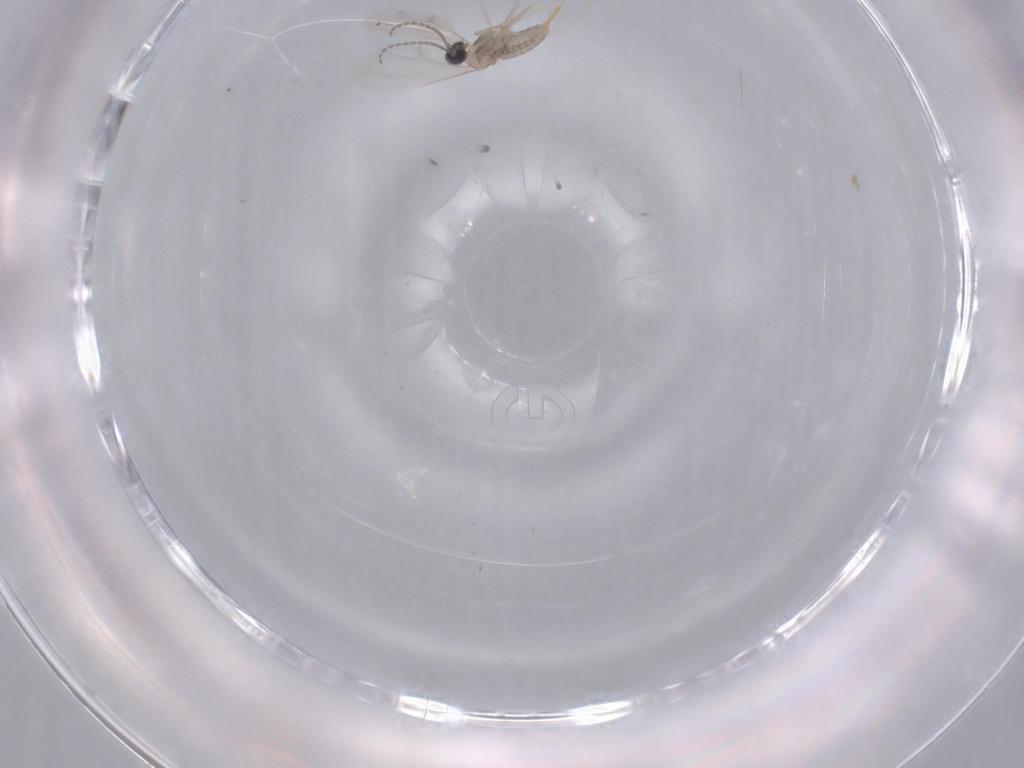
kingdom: Animalia
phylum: Arthropoda
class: Insecta
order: Diptera
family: Cecidomyiidae
